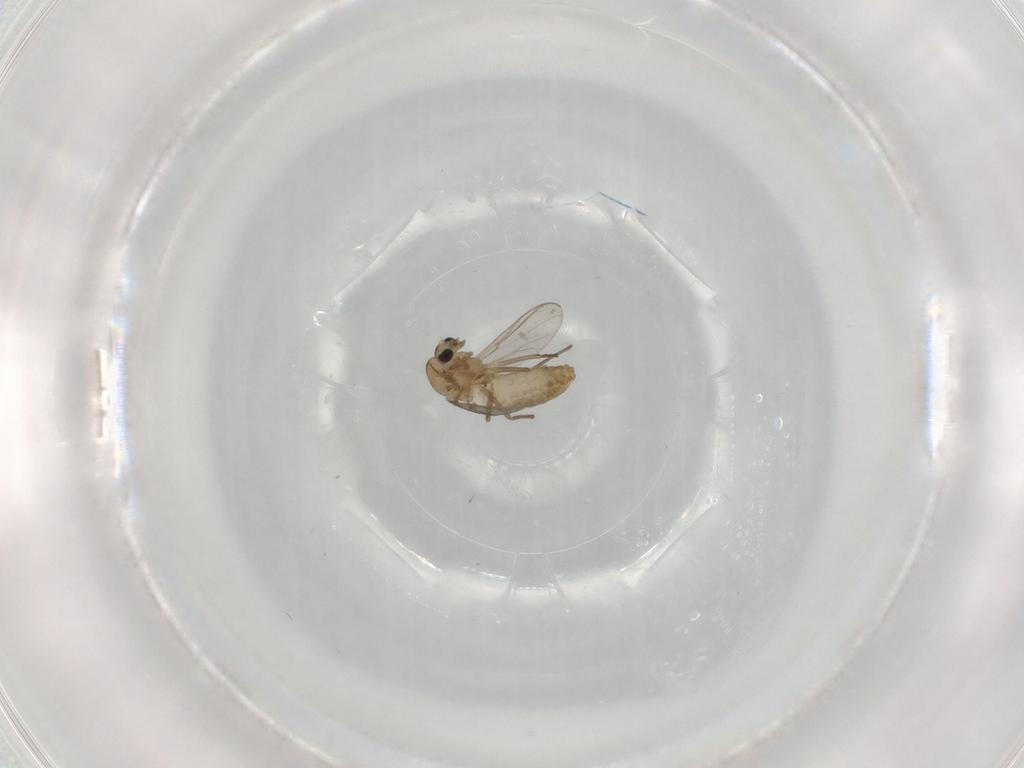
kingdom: Animalia
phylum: Arthropoda
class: Insecta
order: Diptera
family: Chironomidae
